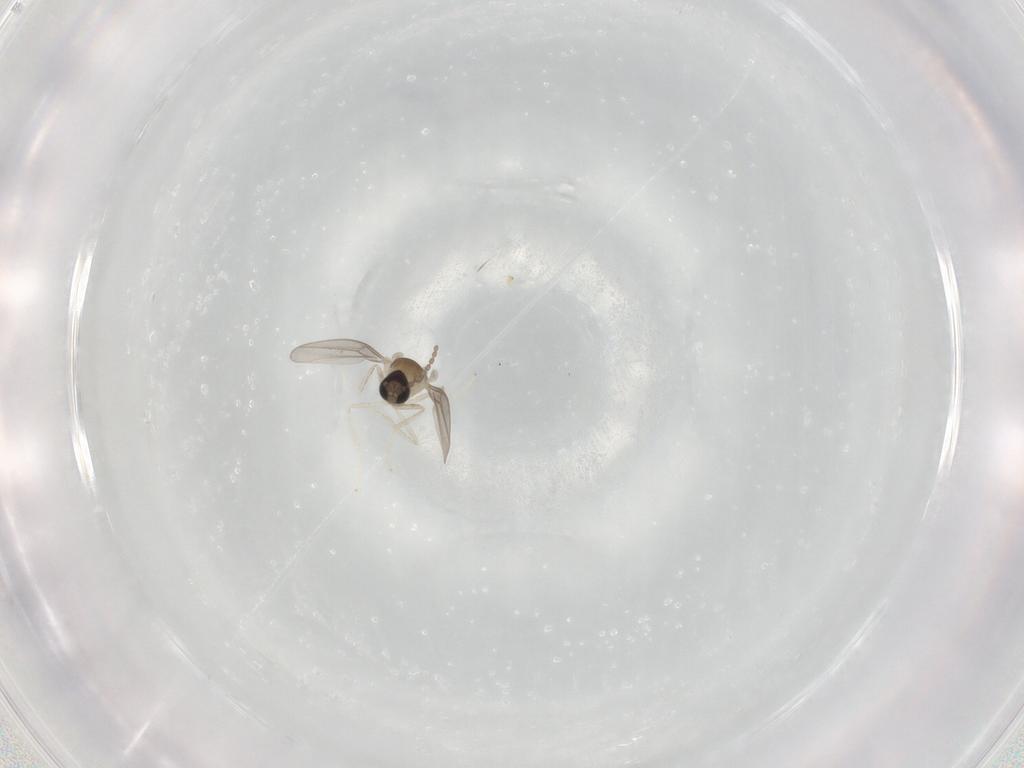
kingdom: Animalia
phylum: Arthropoda
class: Insecta
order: Diptera
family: Cecidomyiidae
